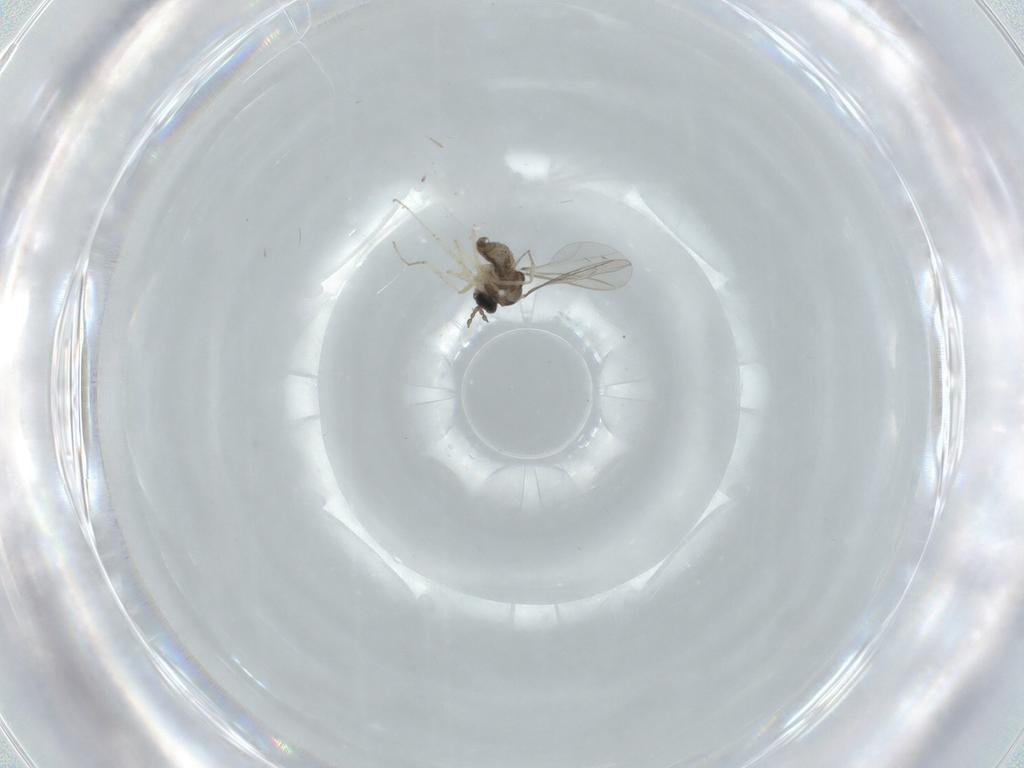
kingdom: Animalia
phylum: Arthropoda
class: Insecta
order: Diptera
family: Cecidomyiidae
